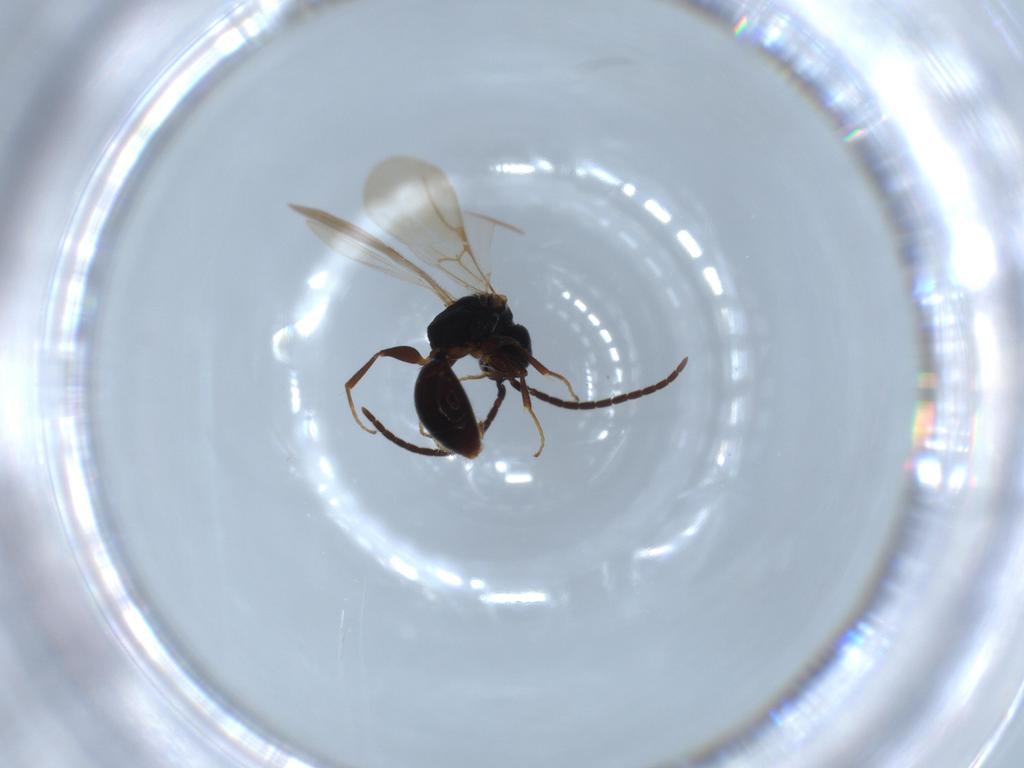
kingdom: Animalia
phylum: Arthropoda
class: Insecta
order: Hymenoptera
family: Bethylidae
